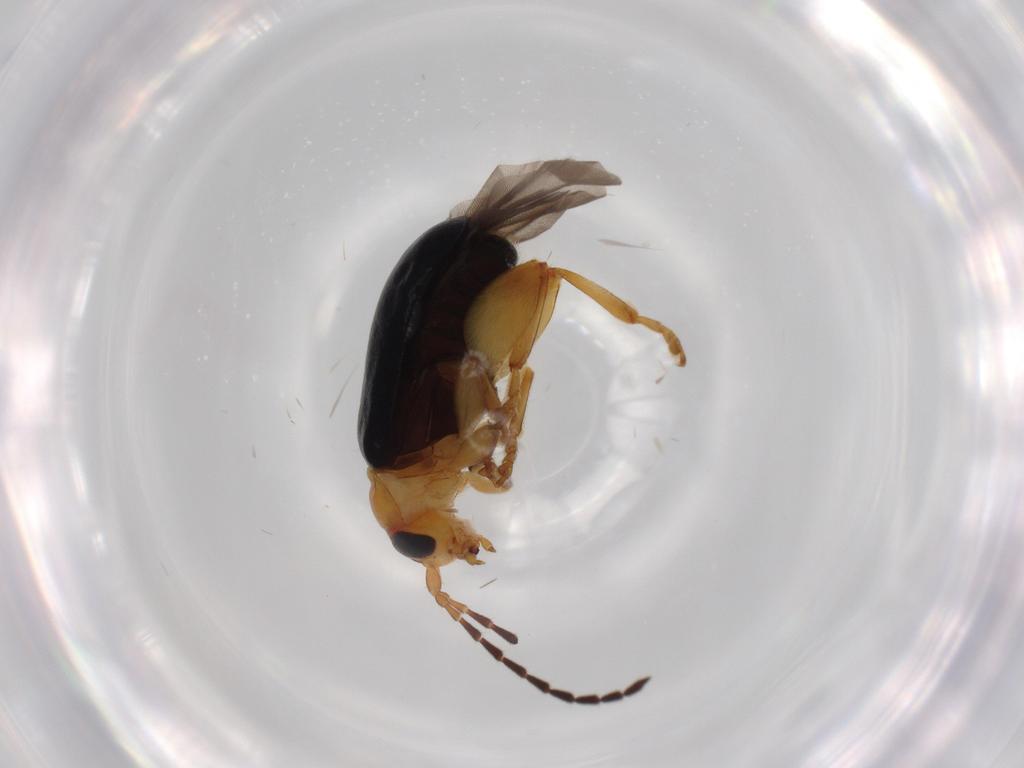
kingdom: Animalia
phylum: Arthropoda
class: Insecta
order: Coleoptera
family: Chrysomelidae
